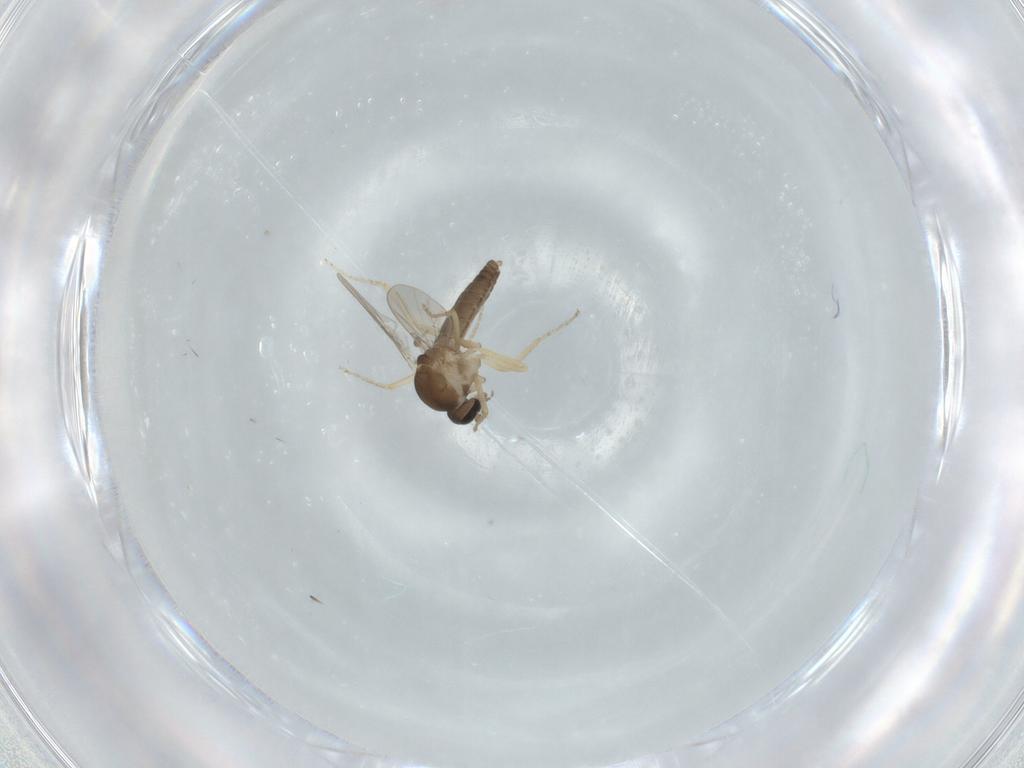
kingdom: Animalia
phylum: Arthropoda
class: Insecta
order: Diptera
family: Ceratopogonidae
